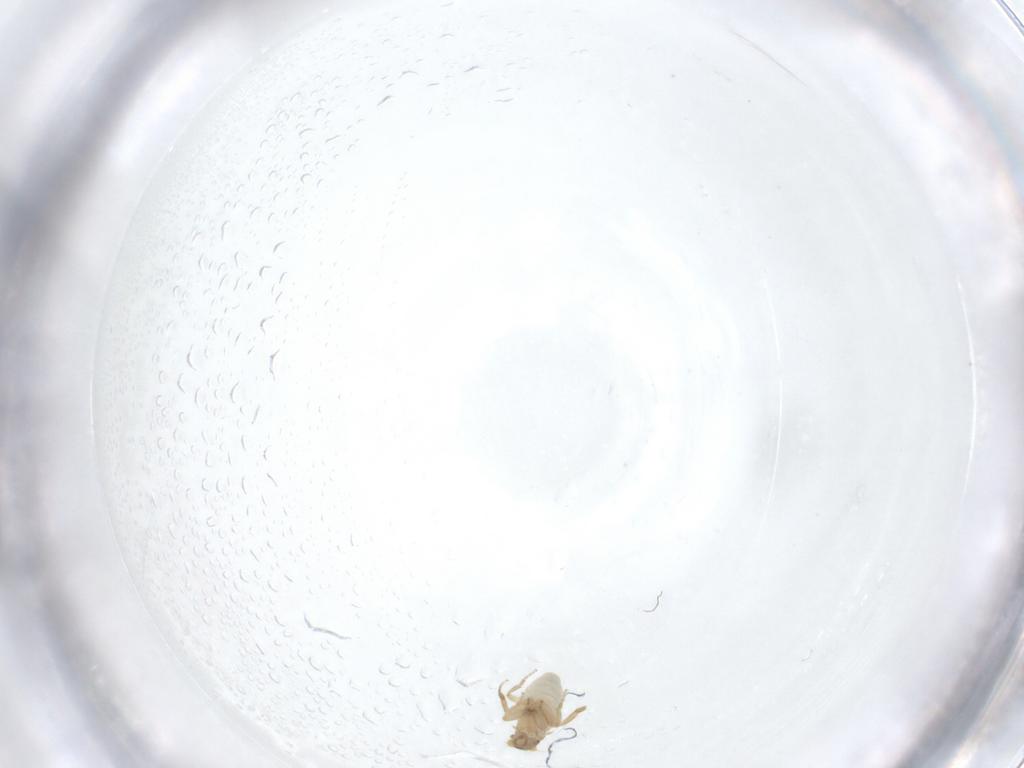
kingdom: Animalia
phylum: Arthropoda
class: Insecta
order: Diptera
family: Phoridae
